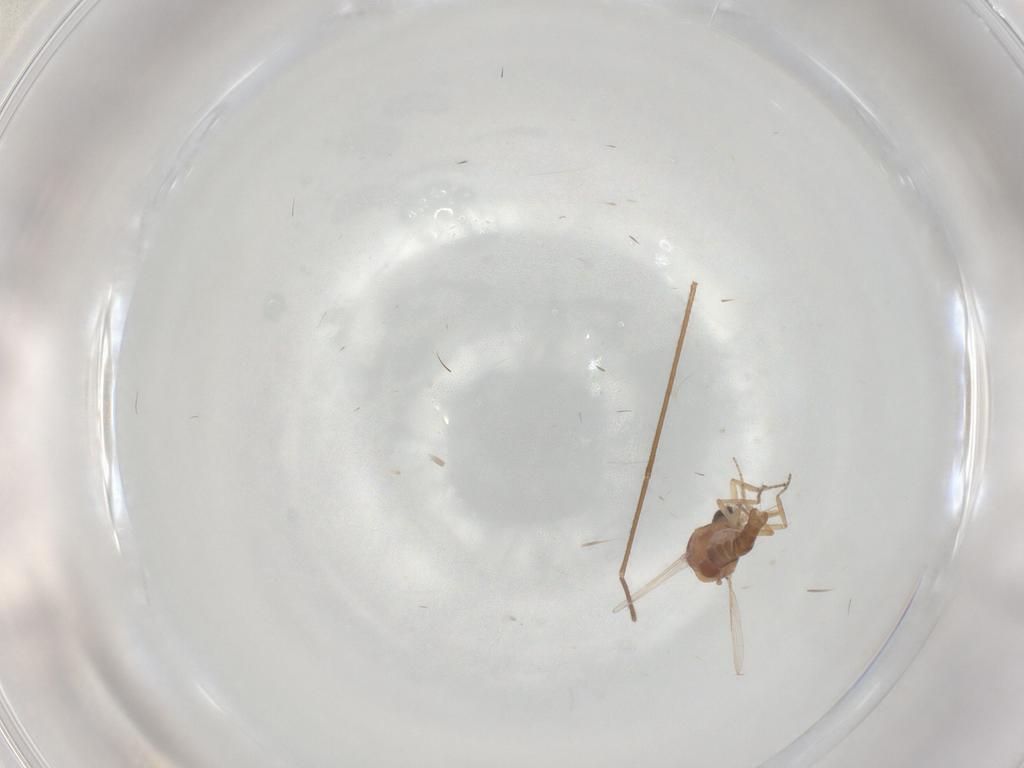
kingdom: Animalia
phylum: Arthropoda
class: Insecta
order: Diptera
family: Ceratopogonidae
